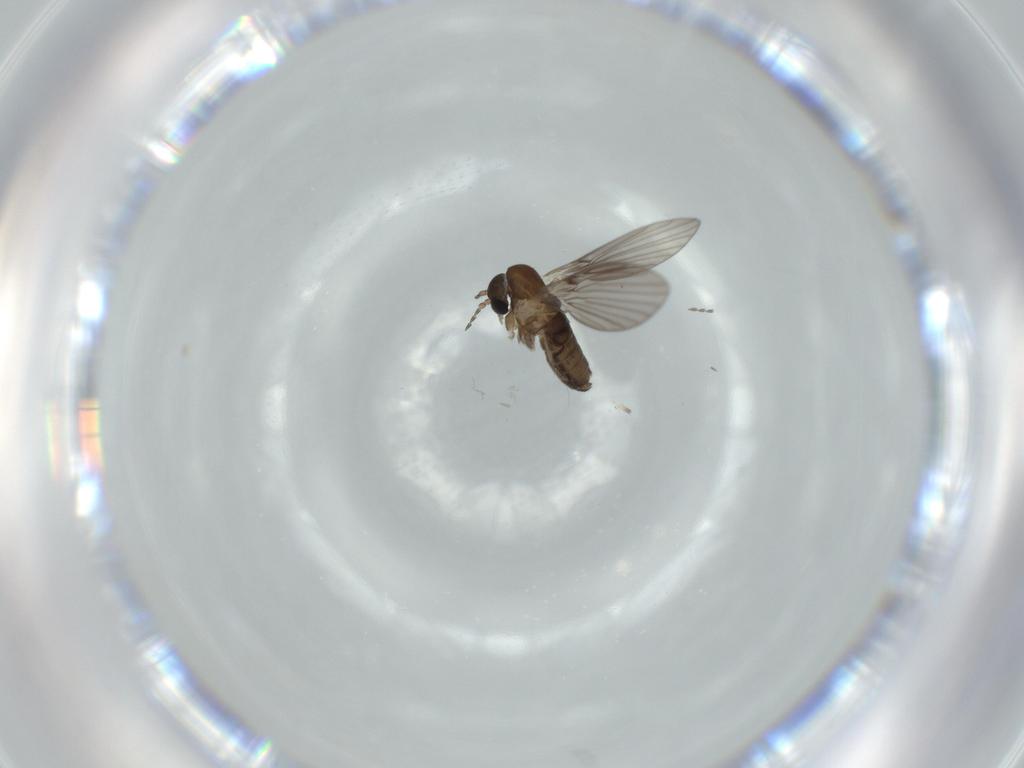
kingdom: Animalia
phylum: Arthropoda
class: Insecta
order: Diptera
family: Psychodidae
